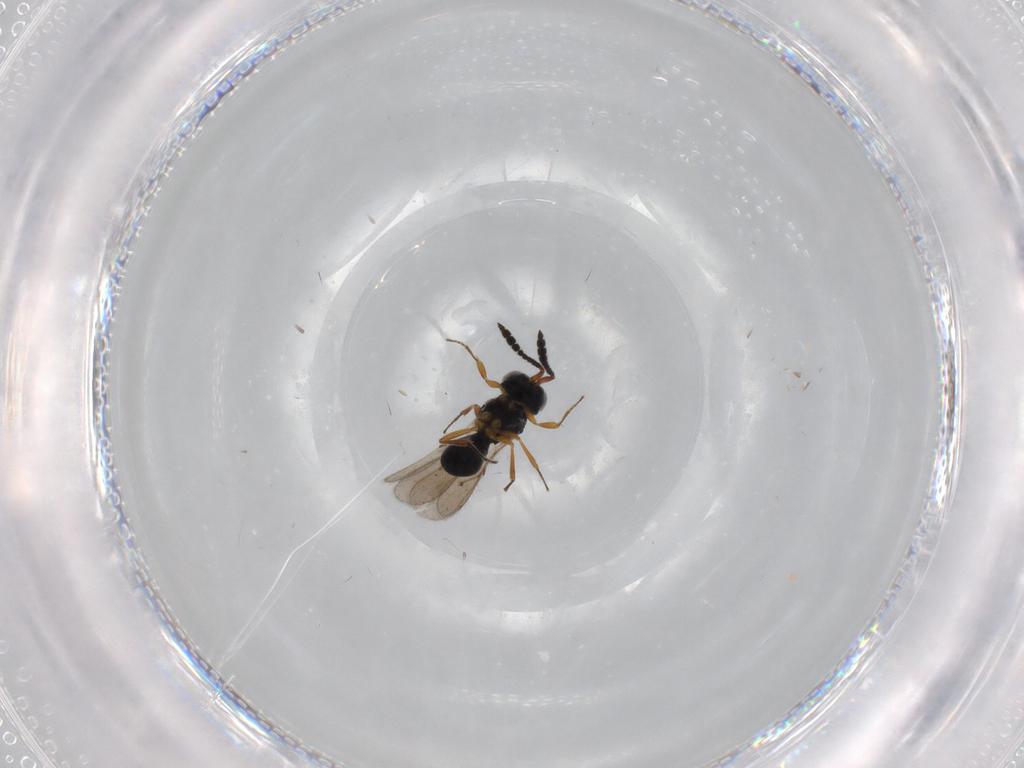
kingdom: Animalia
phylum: Arthropoda
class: Insecta
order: Hymenoptera
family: Scelionidae
